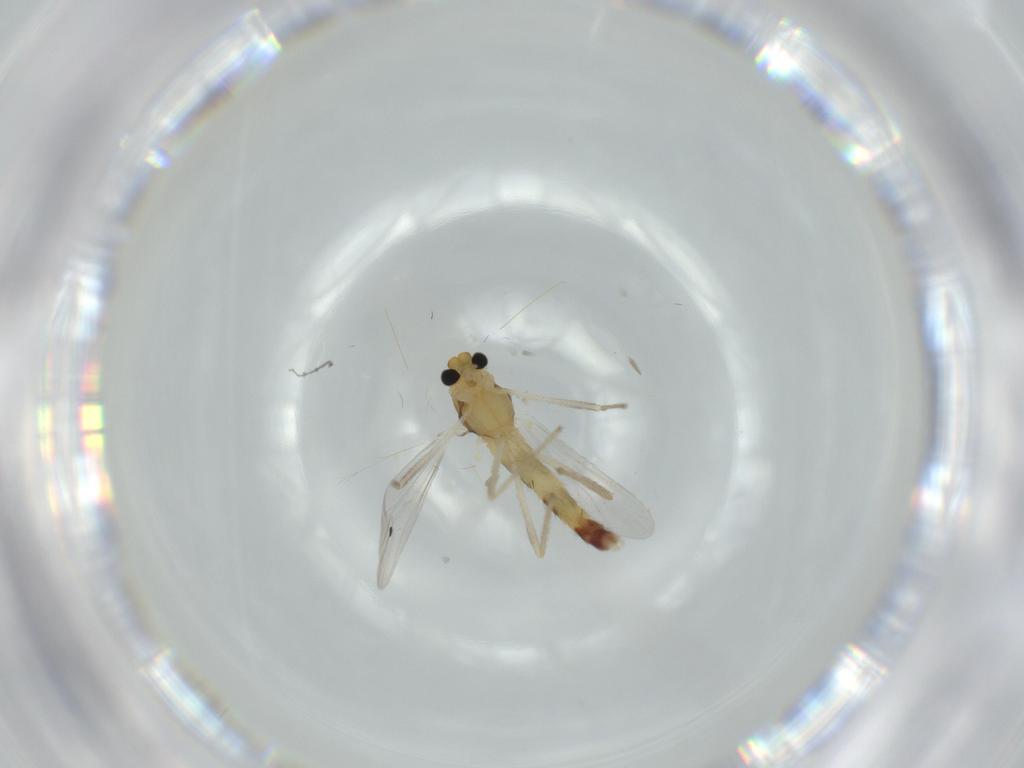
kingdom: Animalia
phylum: Arthropoda
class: Insecta
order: Diptera
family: Chironomidae
